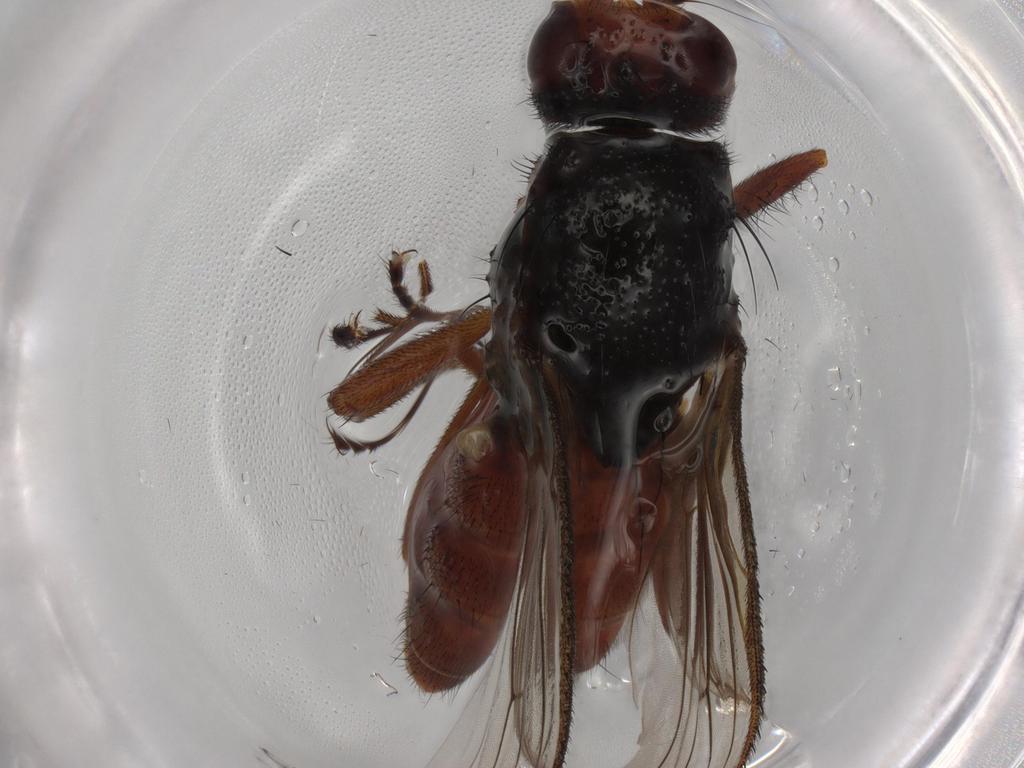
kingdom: Animalia
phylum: Arthropoda
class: Insecta
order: Diptera
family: Heleomyzidae
